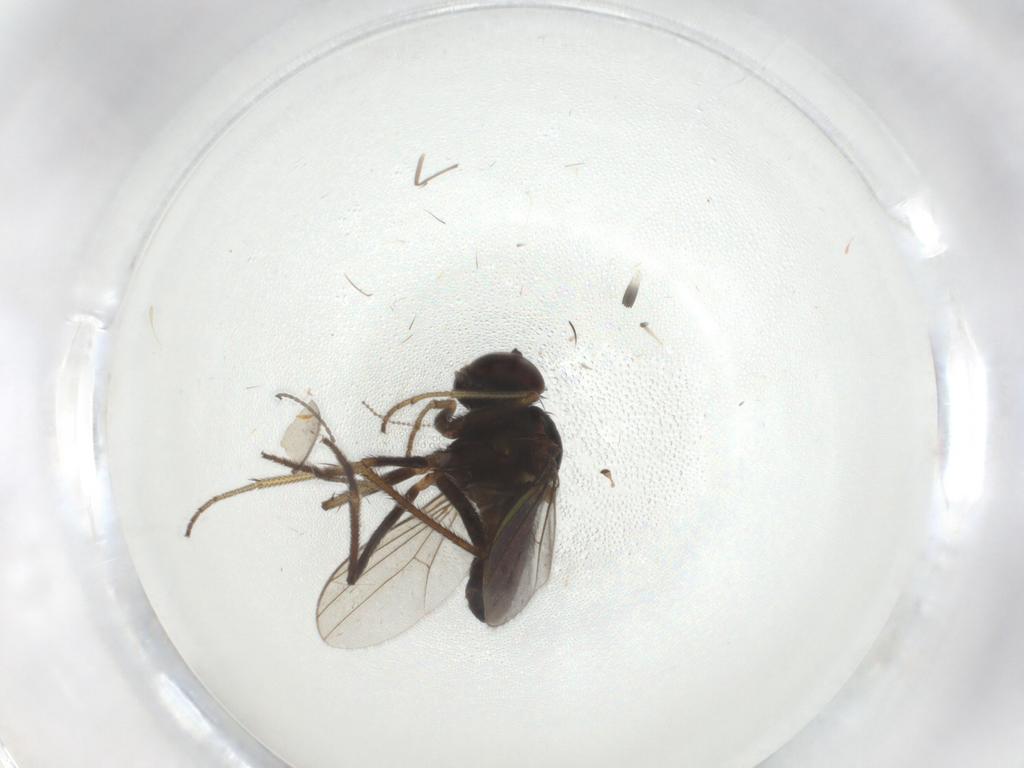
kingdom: Animalia
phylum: Arthropoda
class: Insecta
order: Diptera
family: Cecidomyiidae
